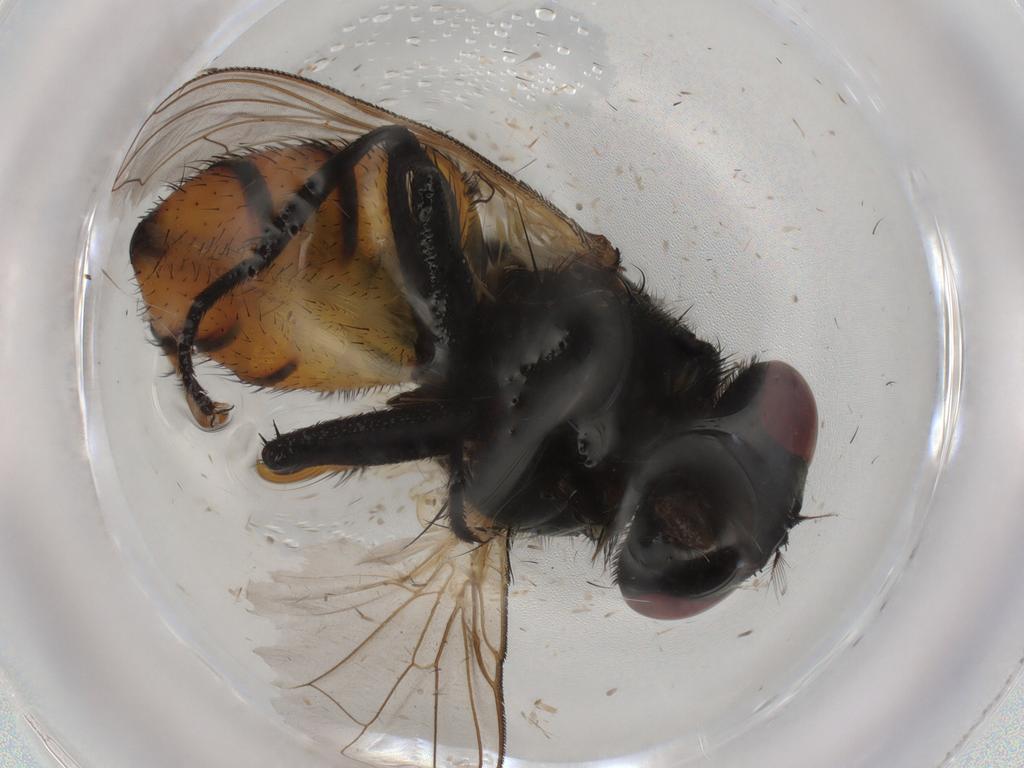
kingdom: Animalia
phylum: Arthropoda
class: Insecta
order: Diptera
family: Muscidae
